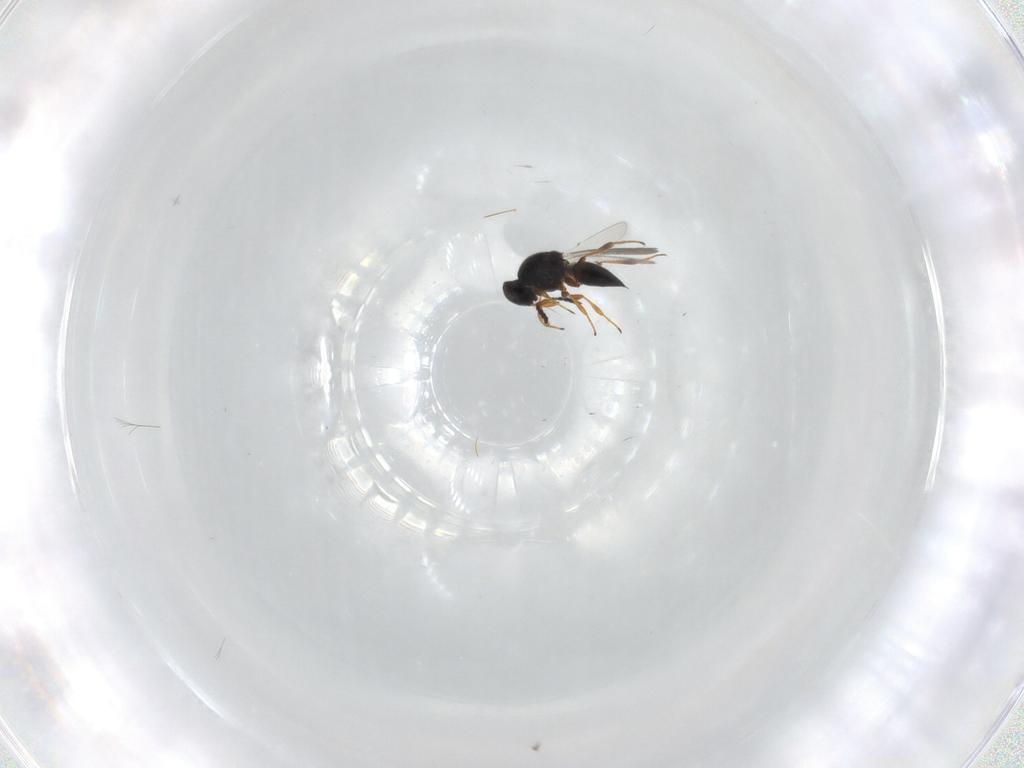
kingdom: Animalia
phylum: Arthropoda
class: Insecta
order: Hymenoptera
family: Platygastridae
